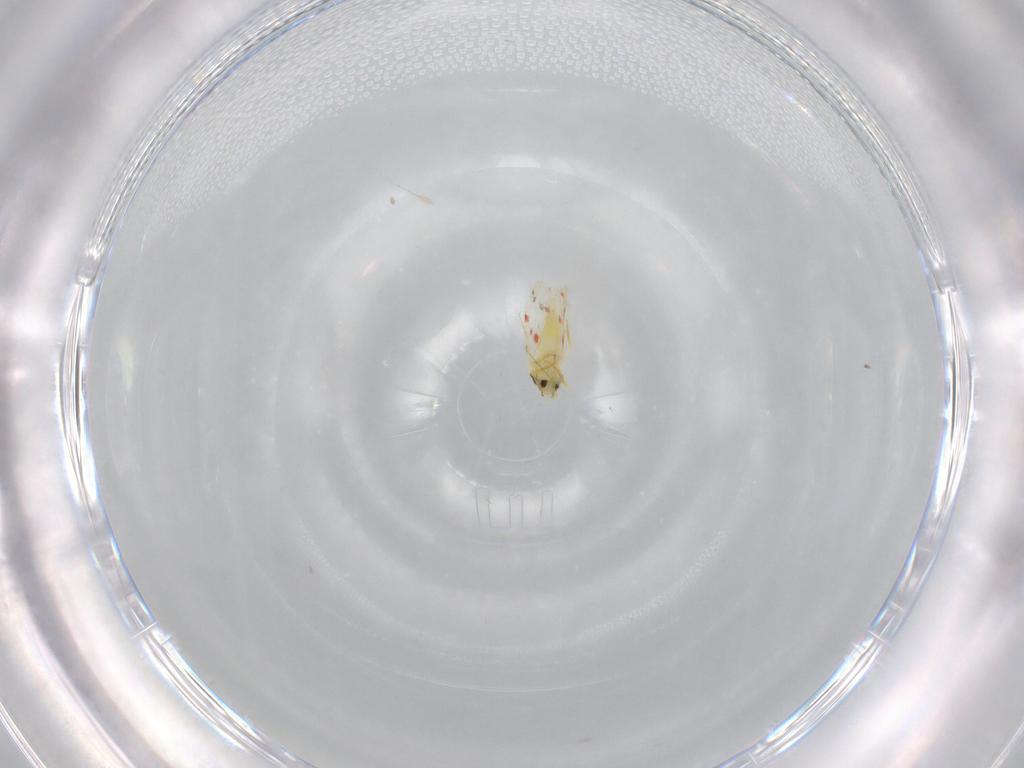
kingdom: Animalia
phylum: Arthropoda
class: Insecta
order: Hemiptera
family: Aleyrodidae
